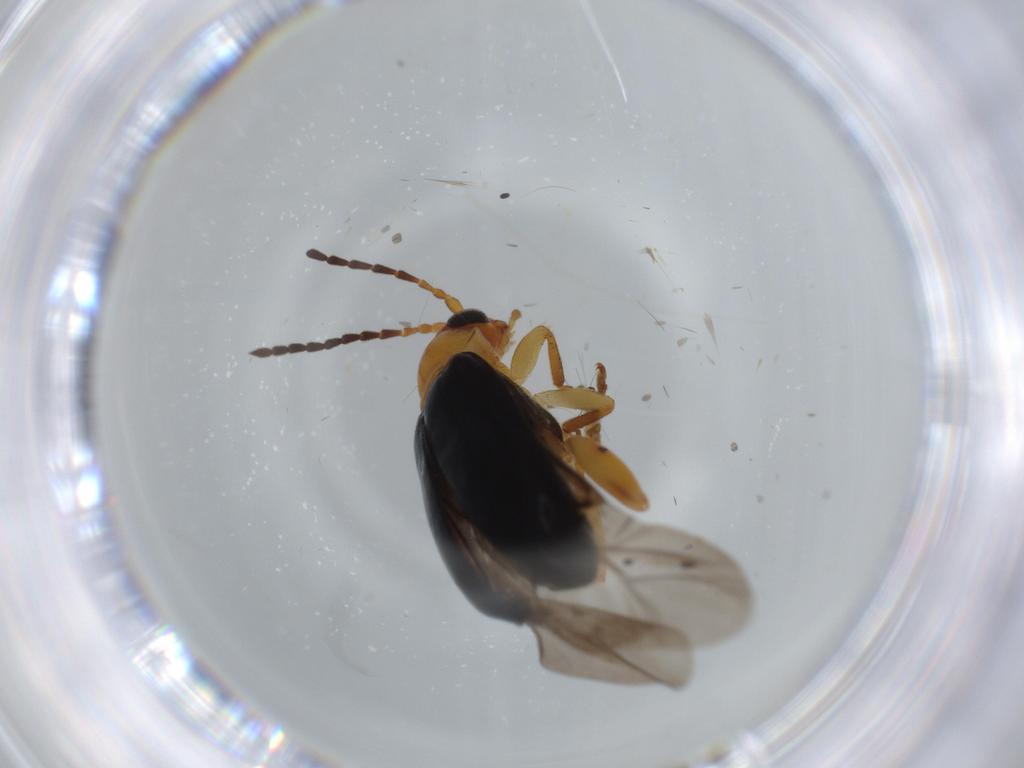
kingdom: Animalia
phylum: Arthropoda
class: Insecta
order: Coleoptera
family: Chrysomelidae
